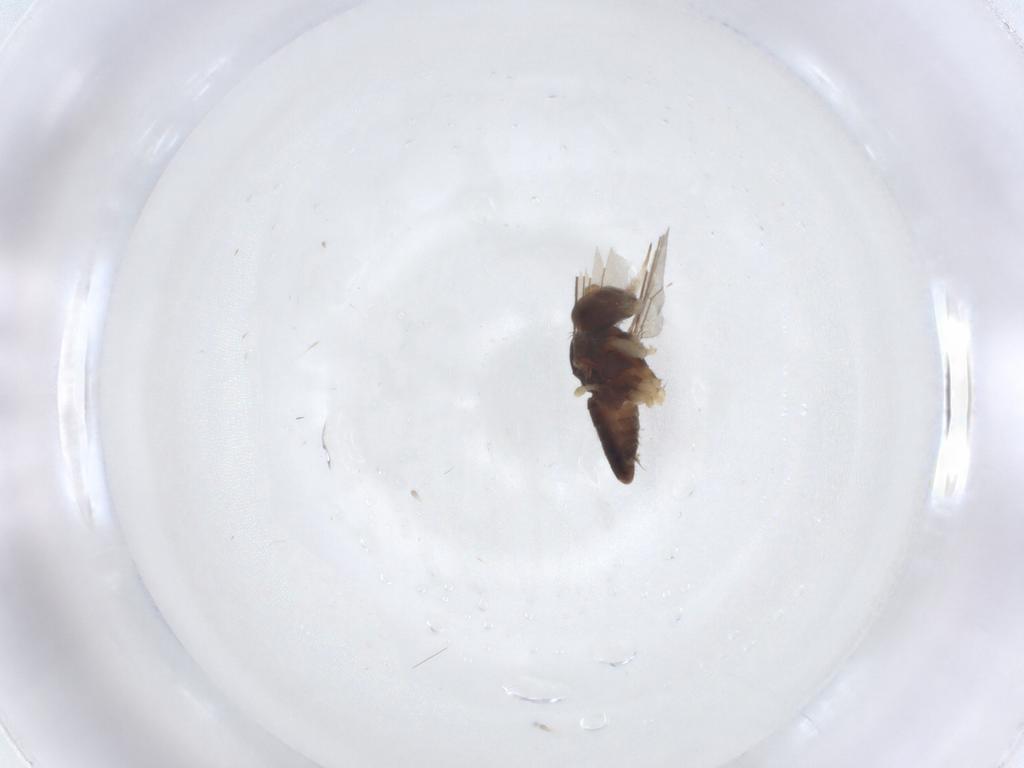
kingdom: Animalia
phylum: Arthropoda
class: Insecta
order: Diptera
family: Dolichopodidae
